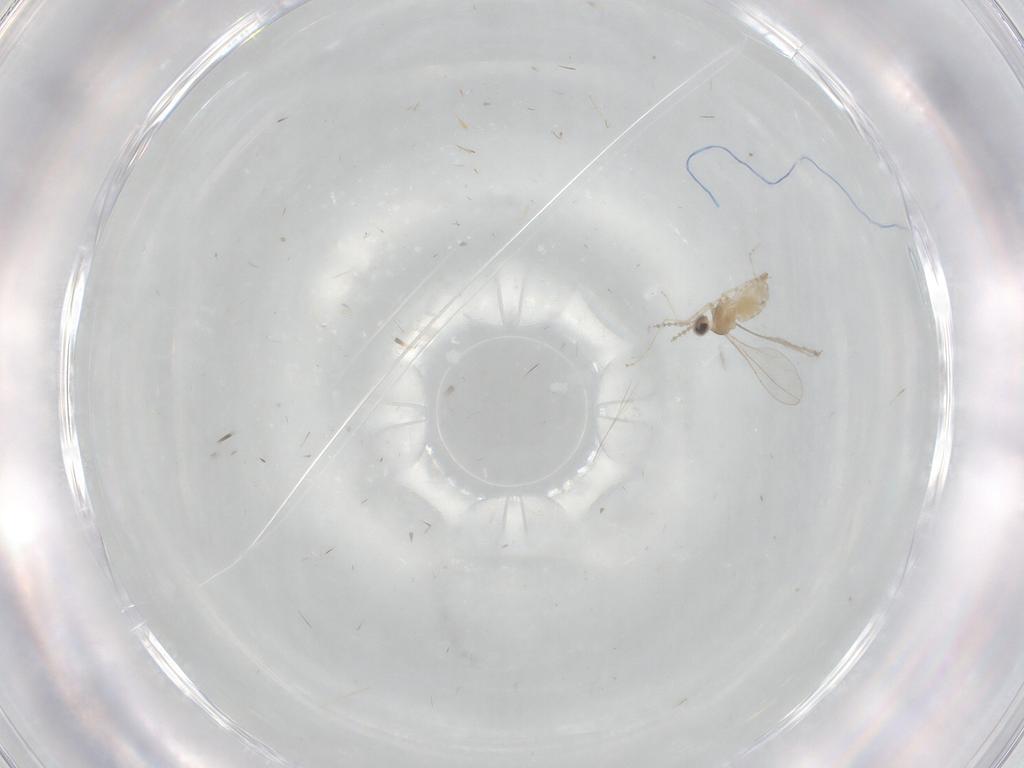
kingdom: Animalia
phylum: Arthropoda
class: Insecta
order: Diptera
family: Cecidomyiidae
